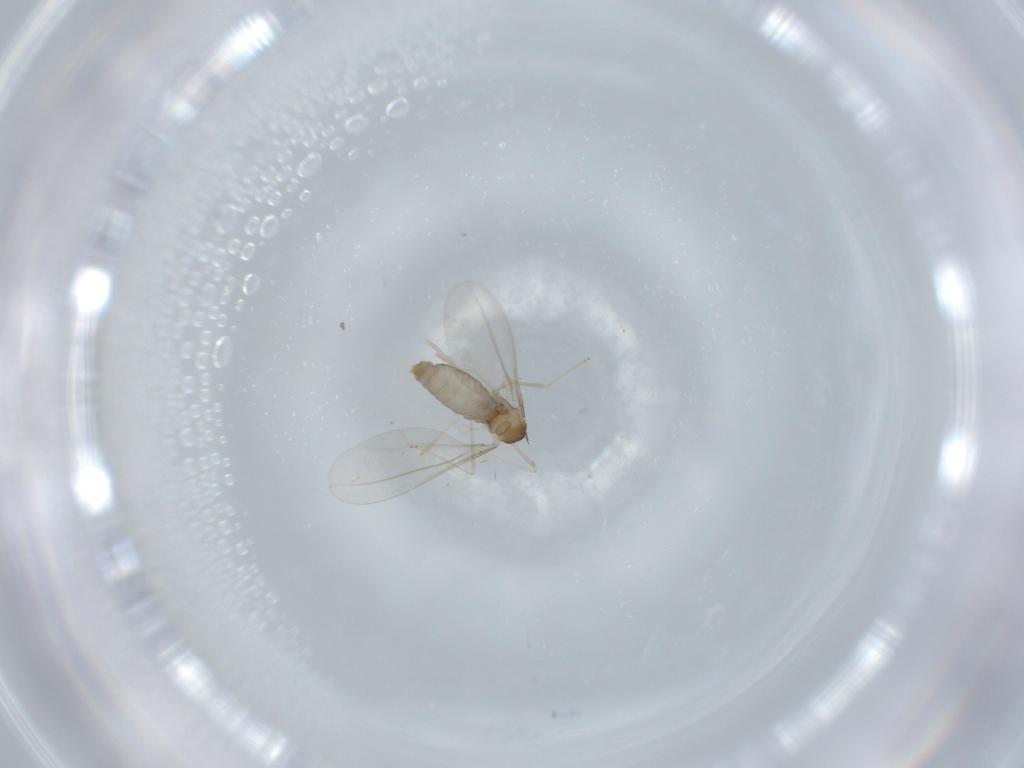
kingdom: Animalia
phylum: Arthropoda
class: Insecta
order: Diptera
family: Cecidomyiidae
